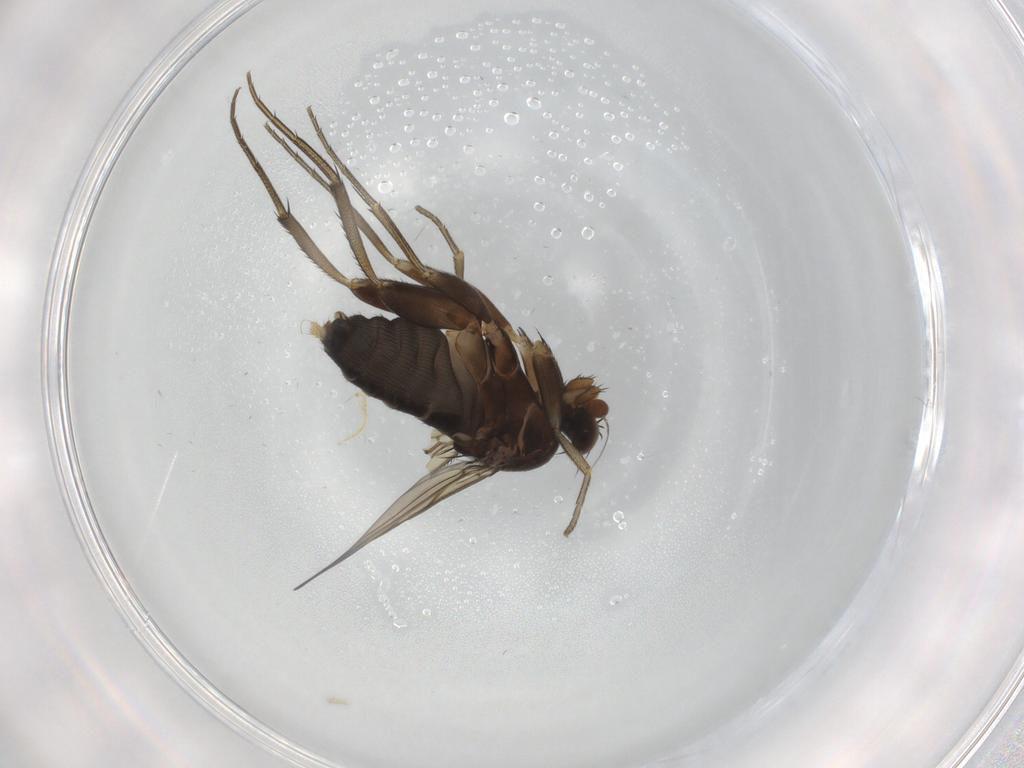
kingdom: Animalia
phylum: Arthropoda
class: Insecta
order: Diptera
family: Phoridae
